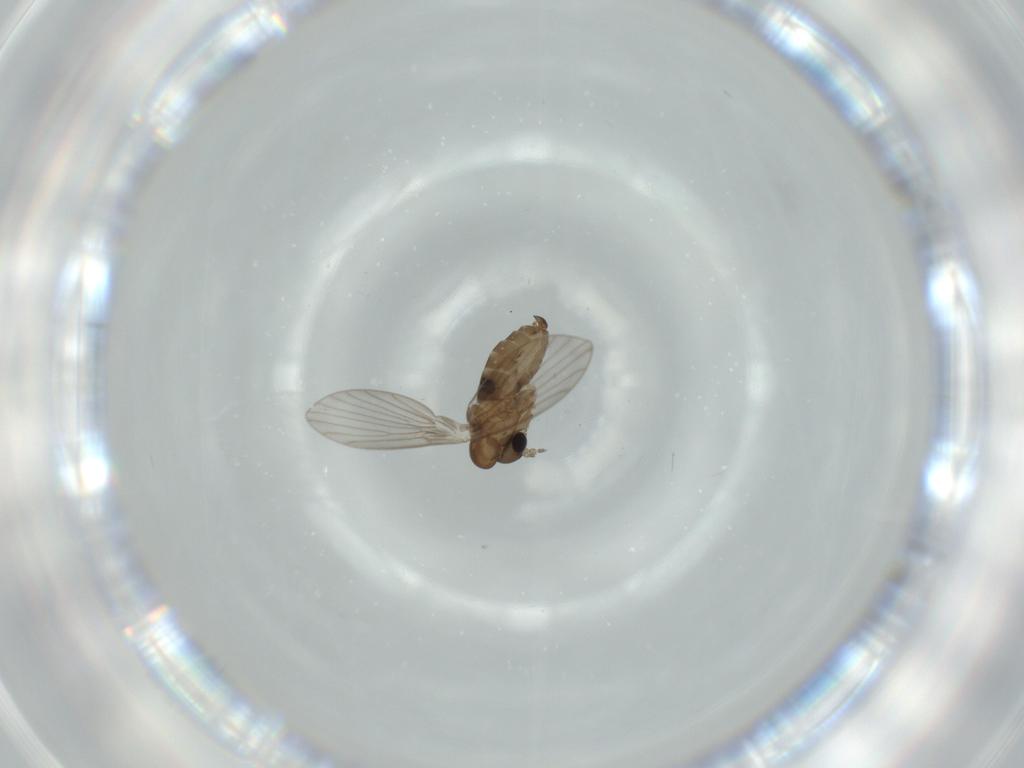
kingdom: Animalia
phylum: Arthropoda
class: Insecta
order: Diptera
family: Psychodidae
